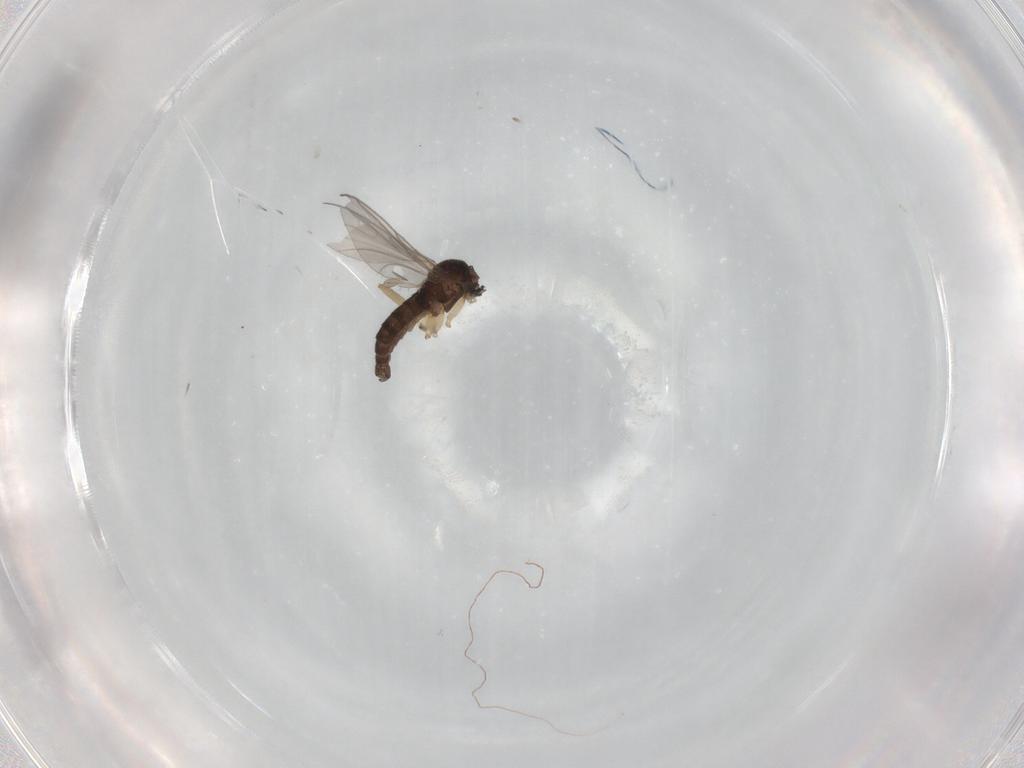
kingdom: Animalia
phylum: Arthropoda
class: Insecta
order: Diptera
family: Sciaridae
